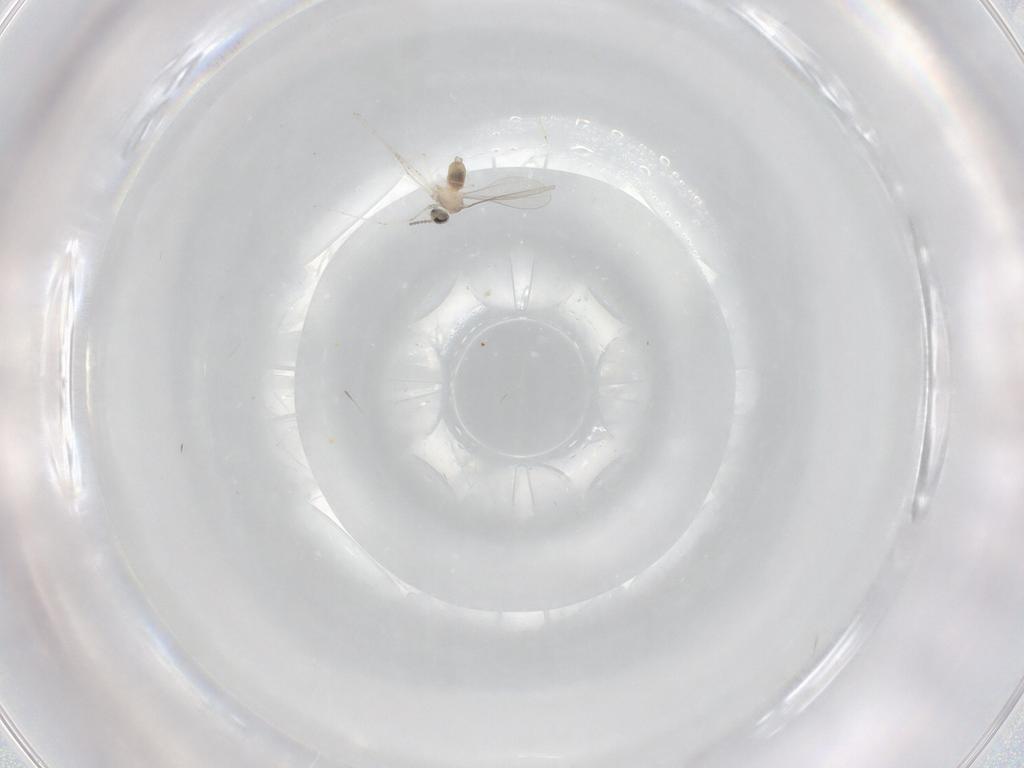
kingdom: Animalia
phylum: Arthropoda
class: Insecta
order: Diptera
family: Cecidomyiidae
